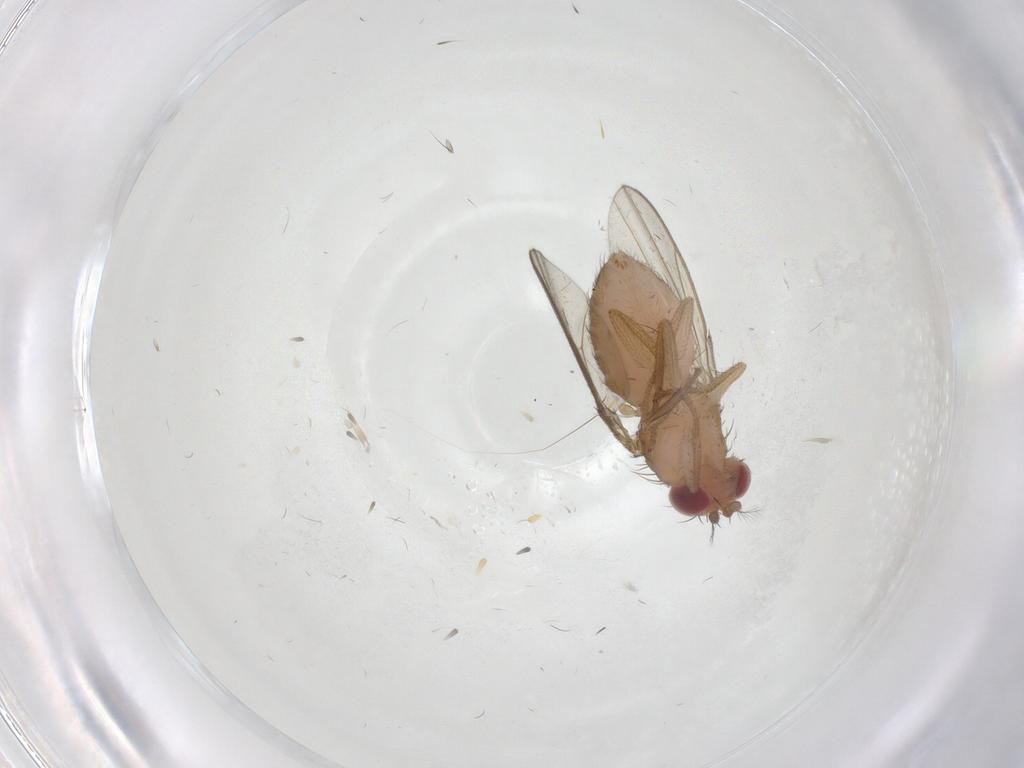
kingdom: Animalia
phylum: Arthropoda
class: Insecta
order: Diptera
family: Drosophilidae
